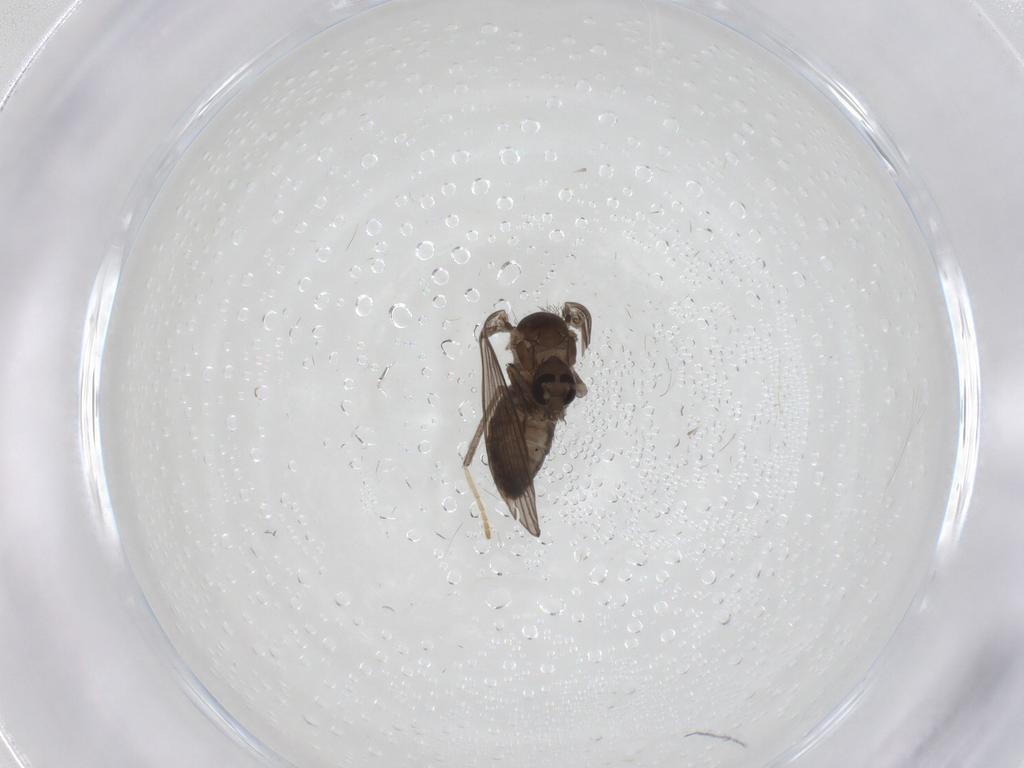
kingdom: Animalia
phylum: Arthropoda
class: Insecta
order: Diptera
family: Psychodidae
